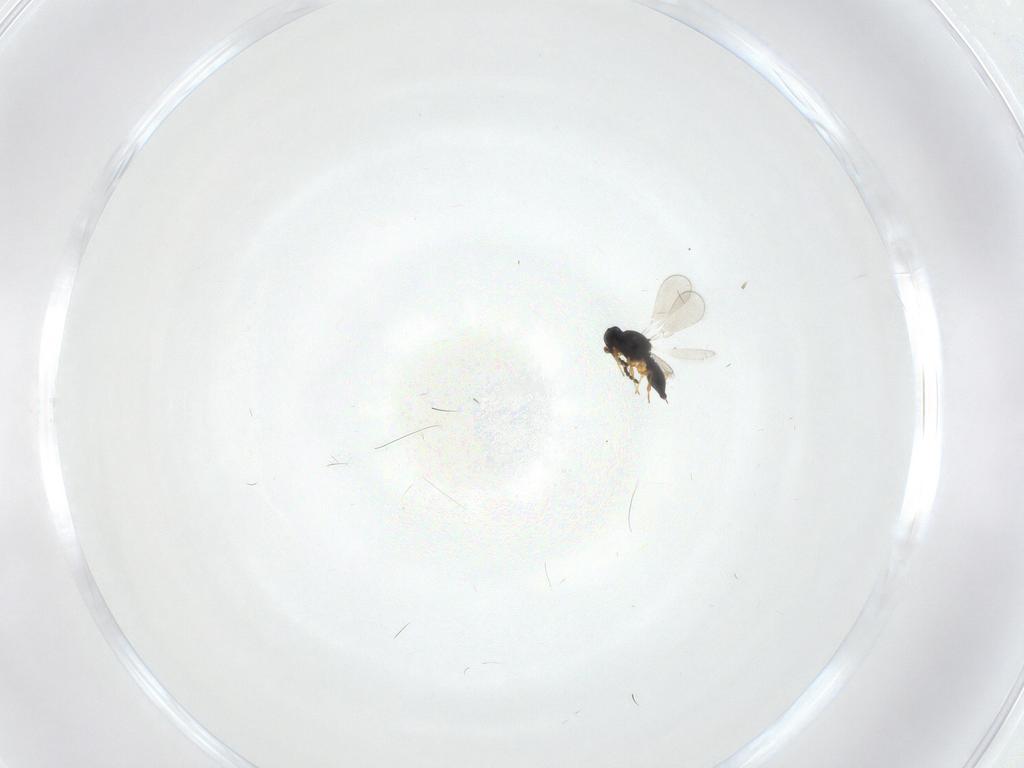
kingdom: Animalia
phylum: Arthropoda
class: Insecta
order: Hymenoptera
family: Platygastridae
